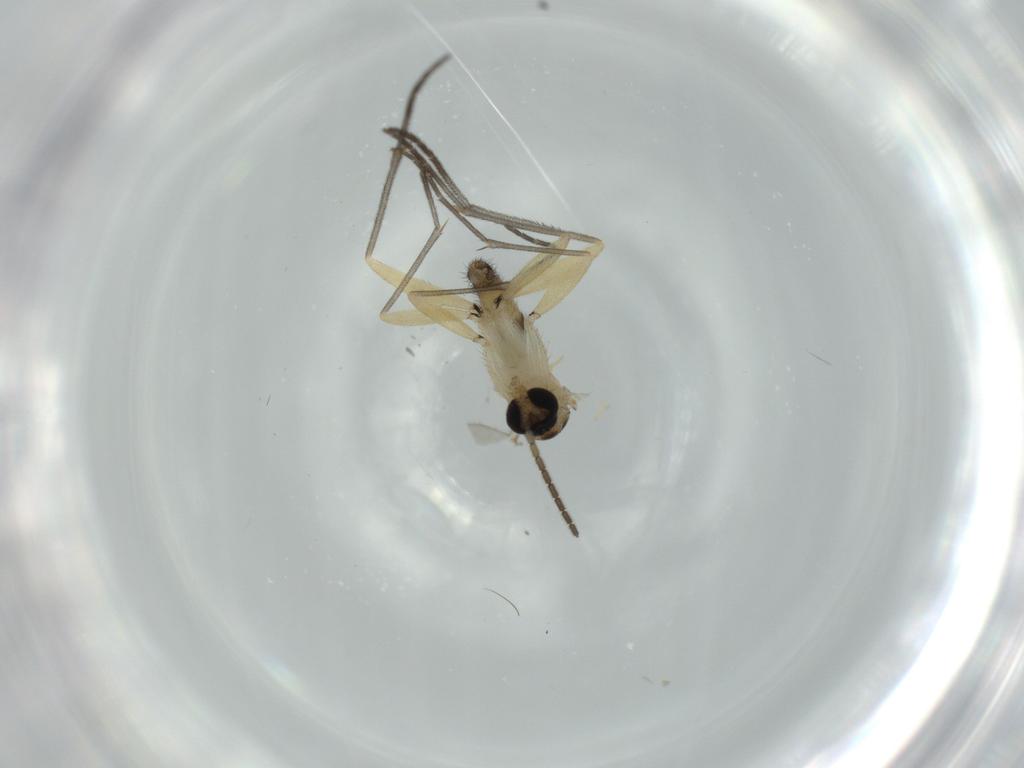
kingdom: Animalia
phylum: Arthropoda
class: Insecta
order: Diptera
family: Sciaridae
